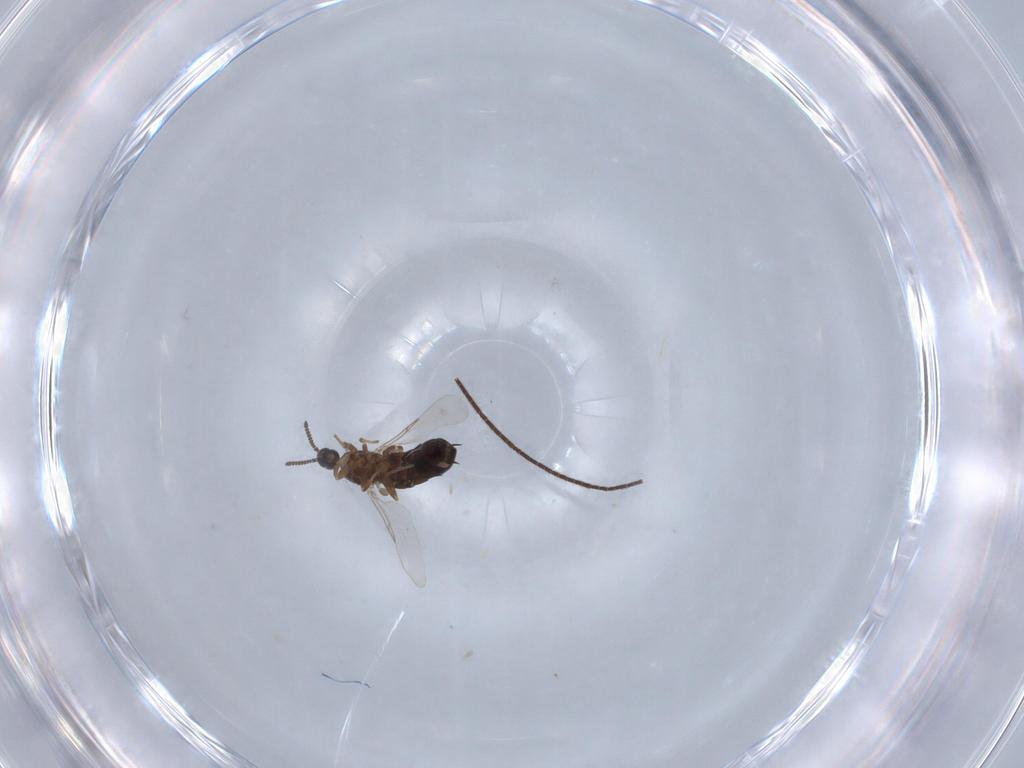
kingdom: Animalia
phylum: Arthropoda
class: Insecta
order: Diptera
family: Scatopsidae
